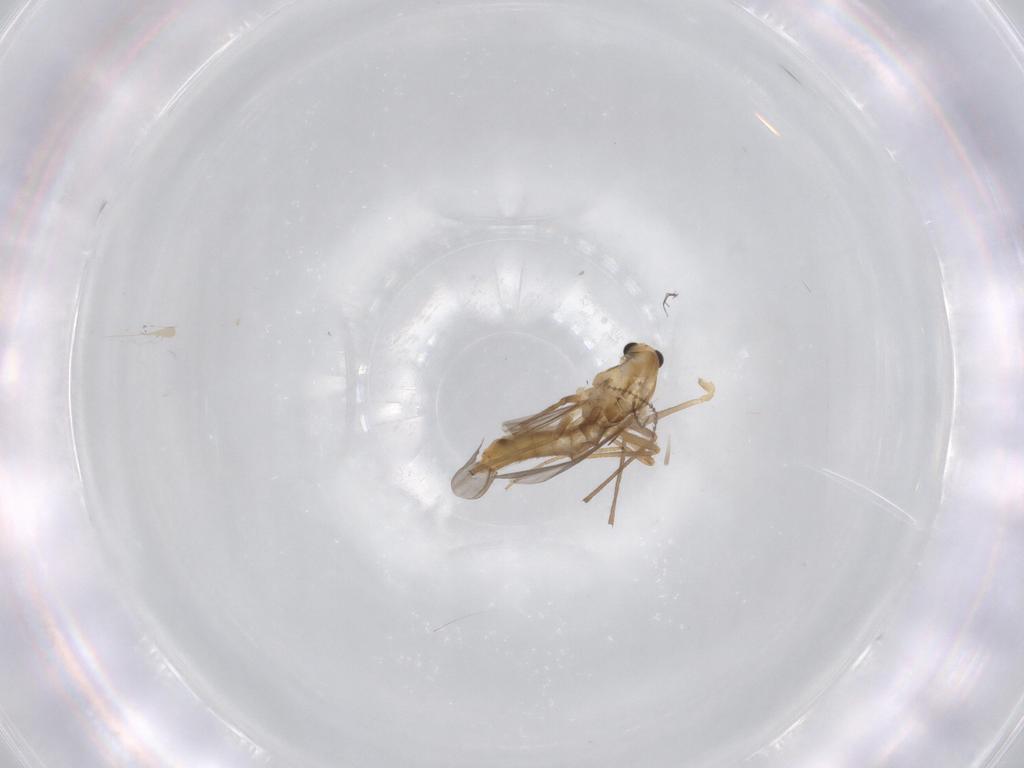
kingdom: Animalia
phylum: Arthropoda
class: Insecta
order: Diptera
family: Cecidomyiidae
